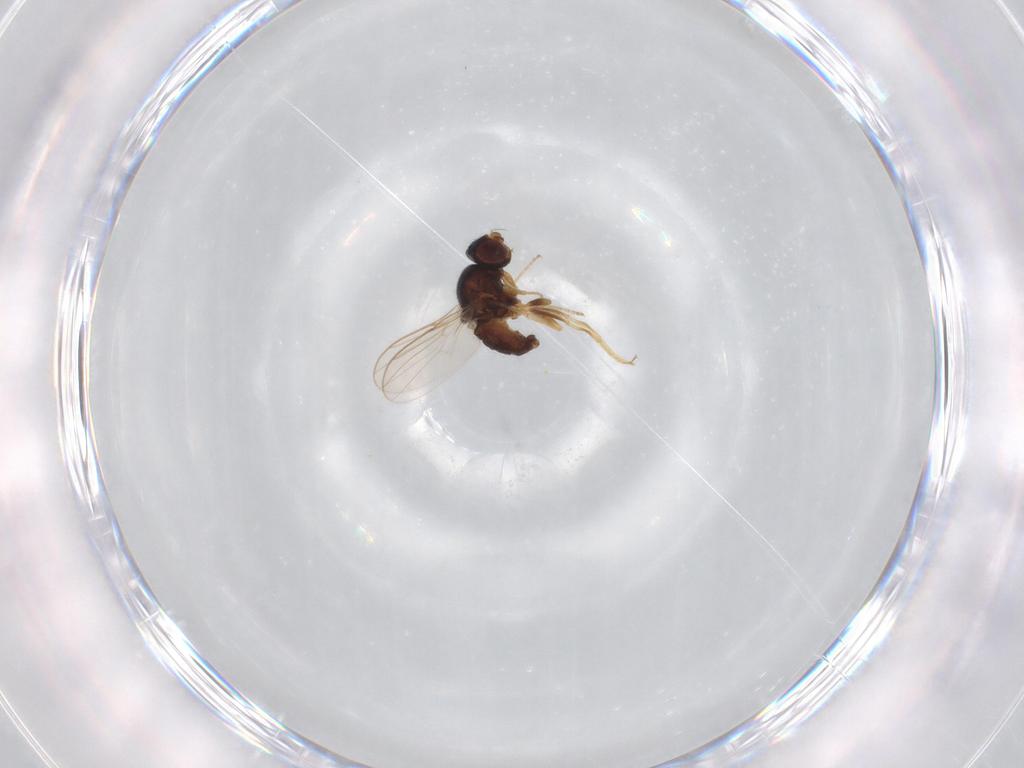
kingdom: Animalia
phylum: Arthropoda
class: Insecta
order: Diptera
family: Chloropidae
